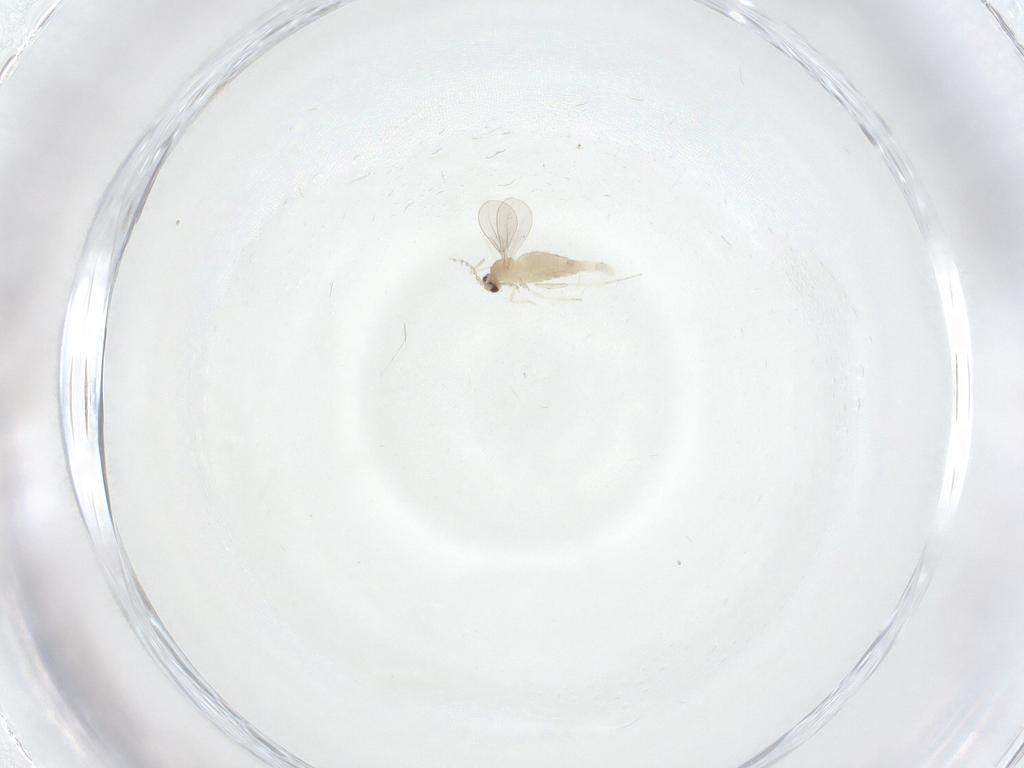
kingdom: Animalia
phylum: Arthropoda
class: Insecta
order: Diptera
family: Cecidomyiidae
